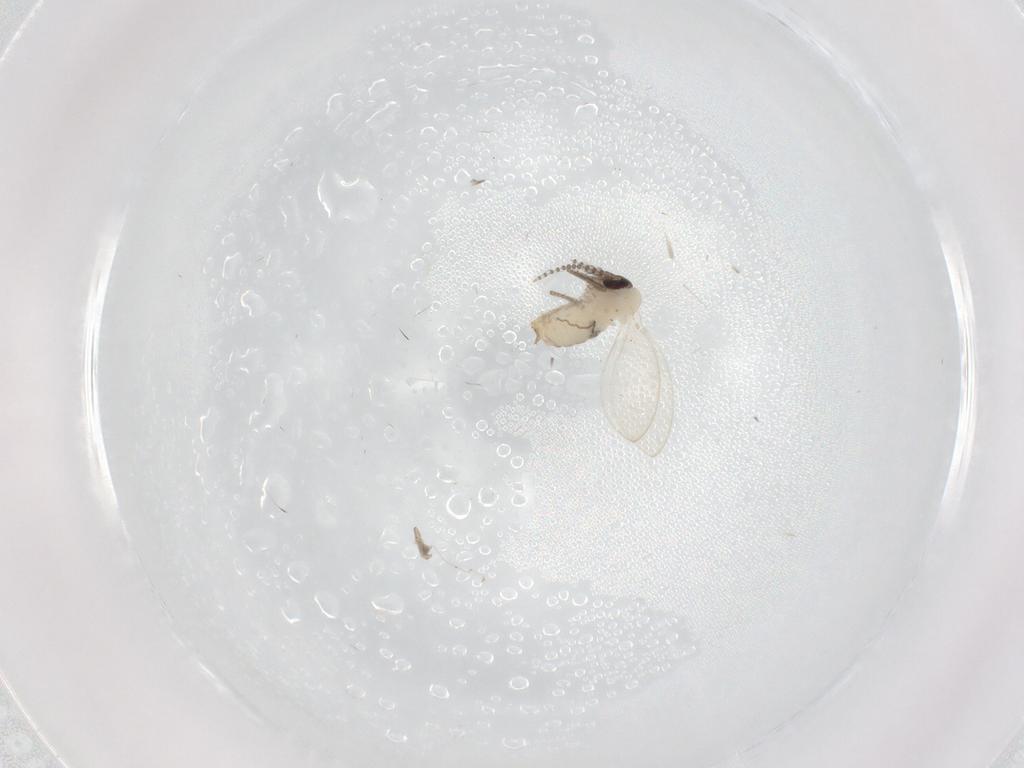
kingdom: Animalia
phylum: Arthropoda
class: Insecta
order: Diptera
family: Psychodidae
